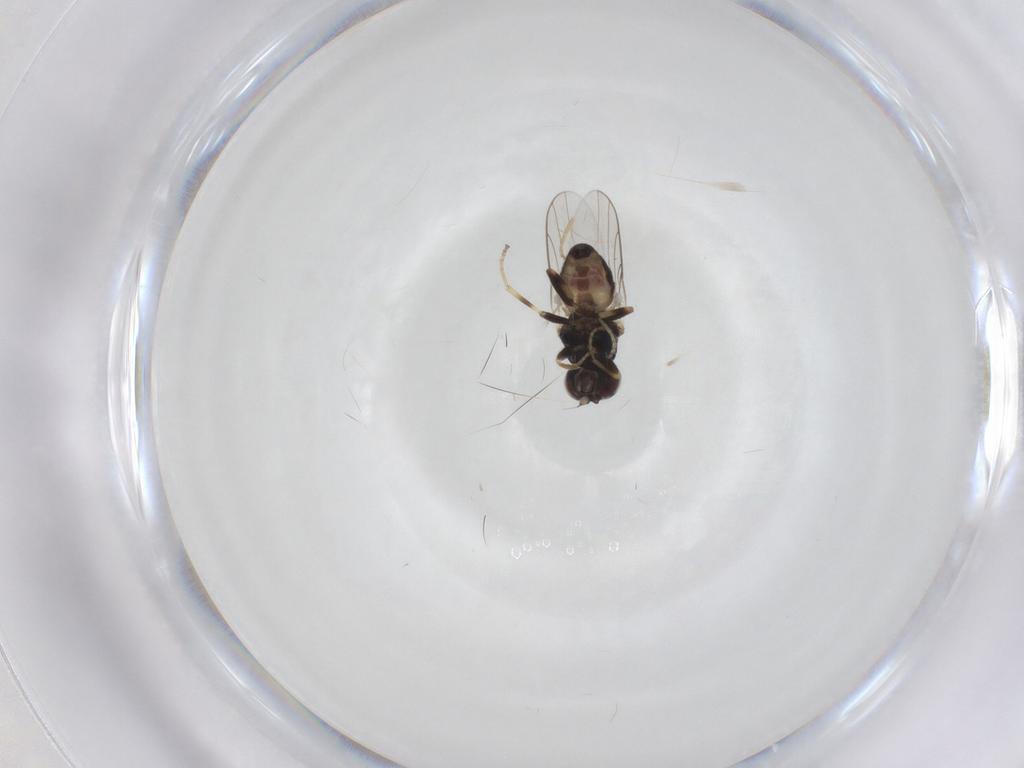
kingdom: Animalia
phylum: Arthropoda
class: Insecta
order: Diptera
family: Chloropidae
